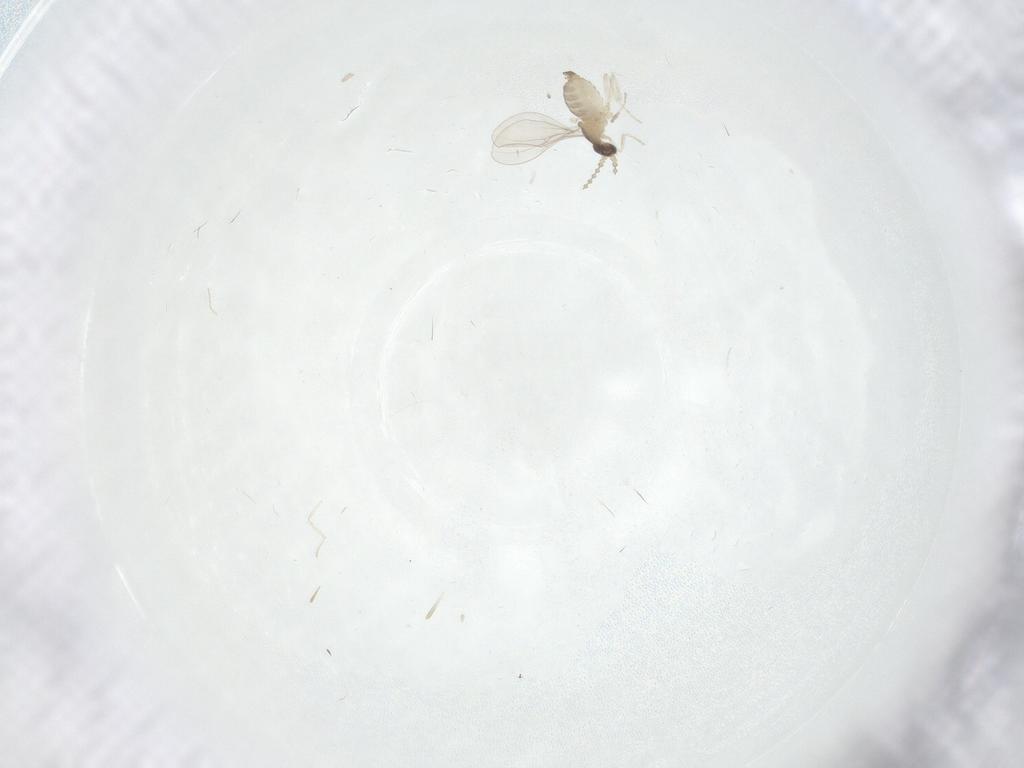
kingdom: Animalia
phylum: Arthropoda
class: Insecta
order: Diptera
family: Cecidomyiidae
